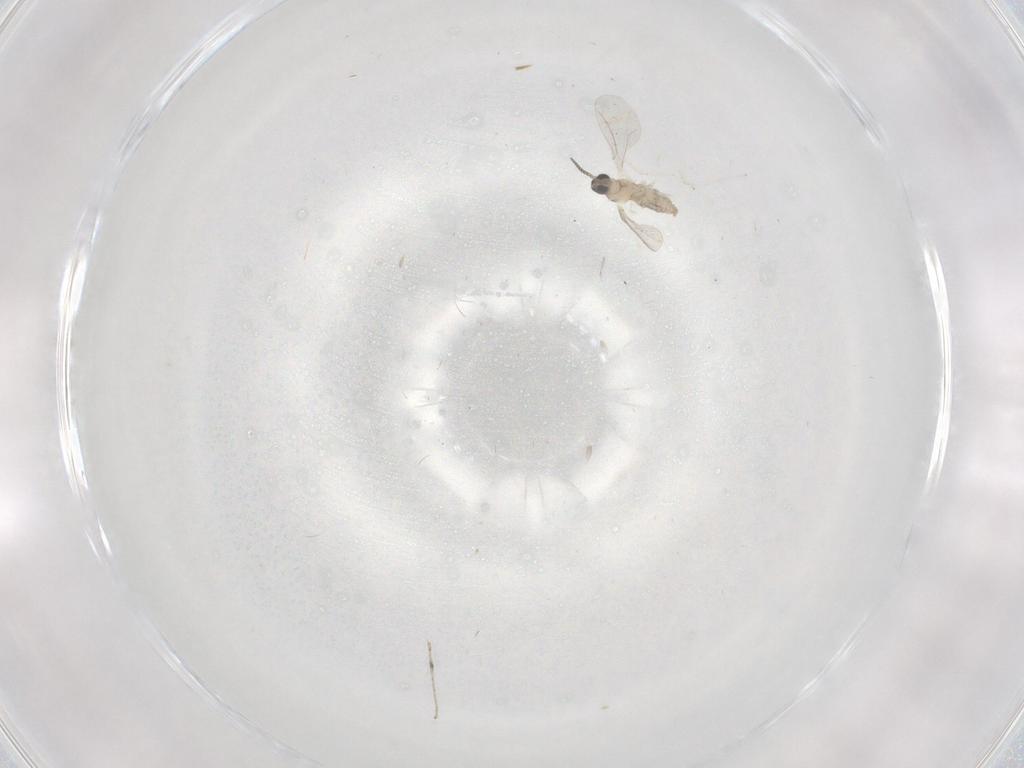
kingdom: Animalia
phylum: Arthropoda
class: Insecta
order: Diptera
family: Cecidomyiidae
